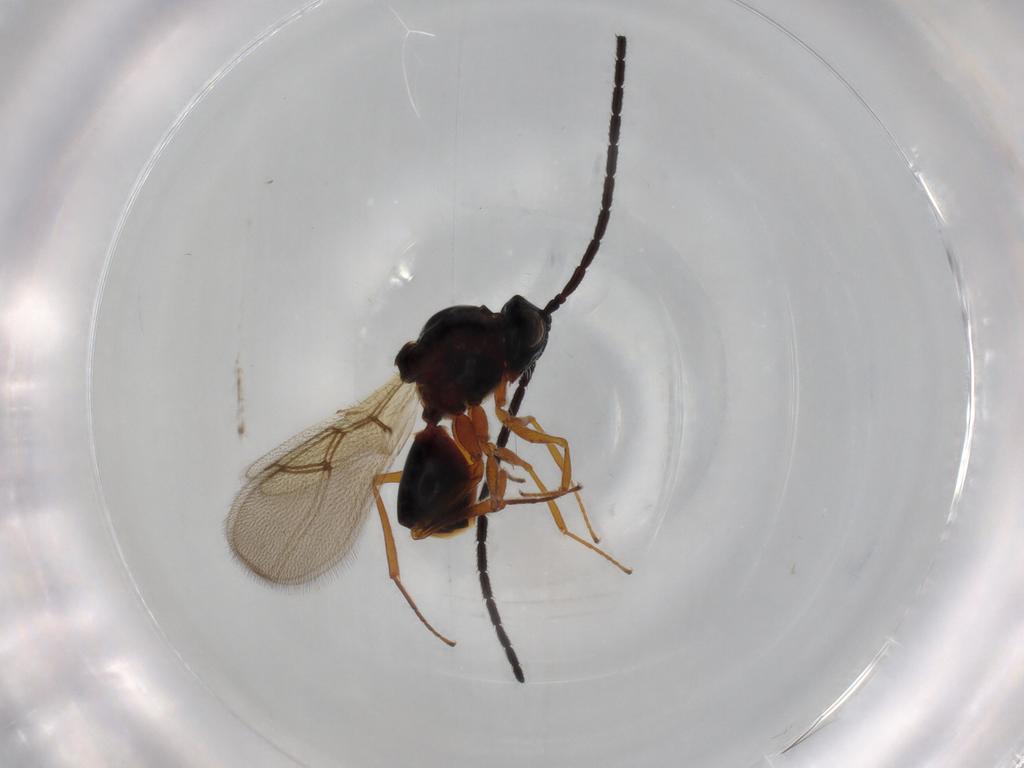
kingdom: Animalia
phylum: Arthropoda
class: Insecta
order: Hymenoptera
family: Figitidae
